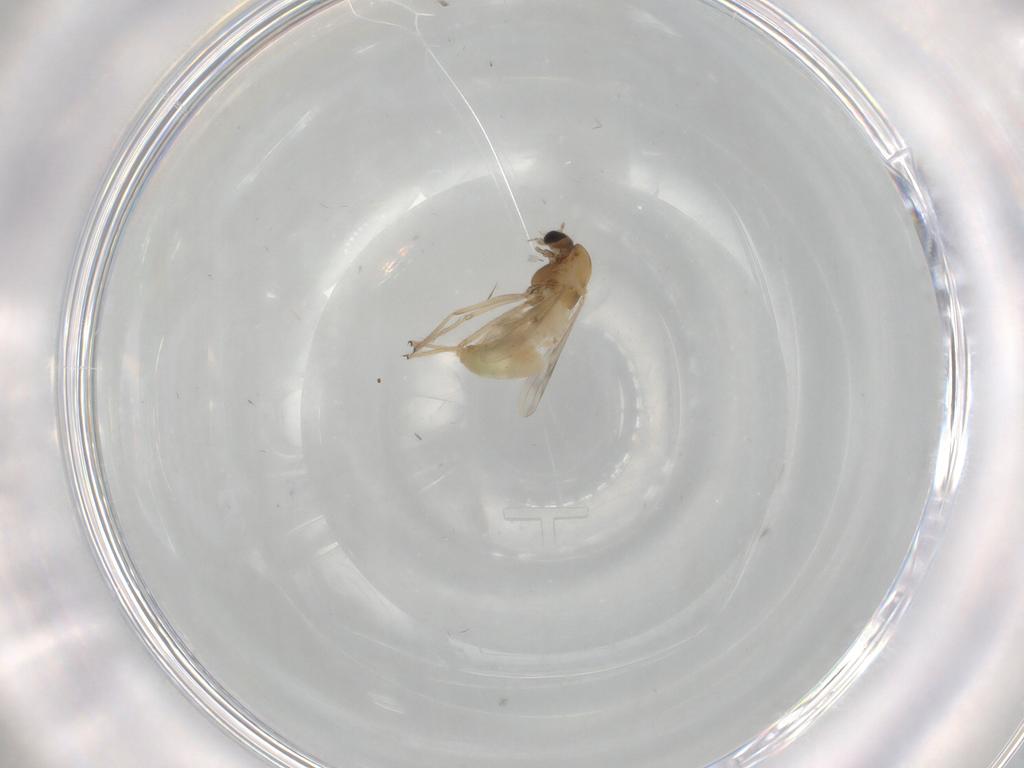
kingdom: Animalia
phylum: Arthropoda
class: Insecta
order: Diptera
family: Chironomidae
